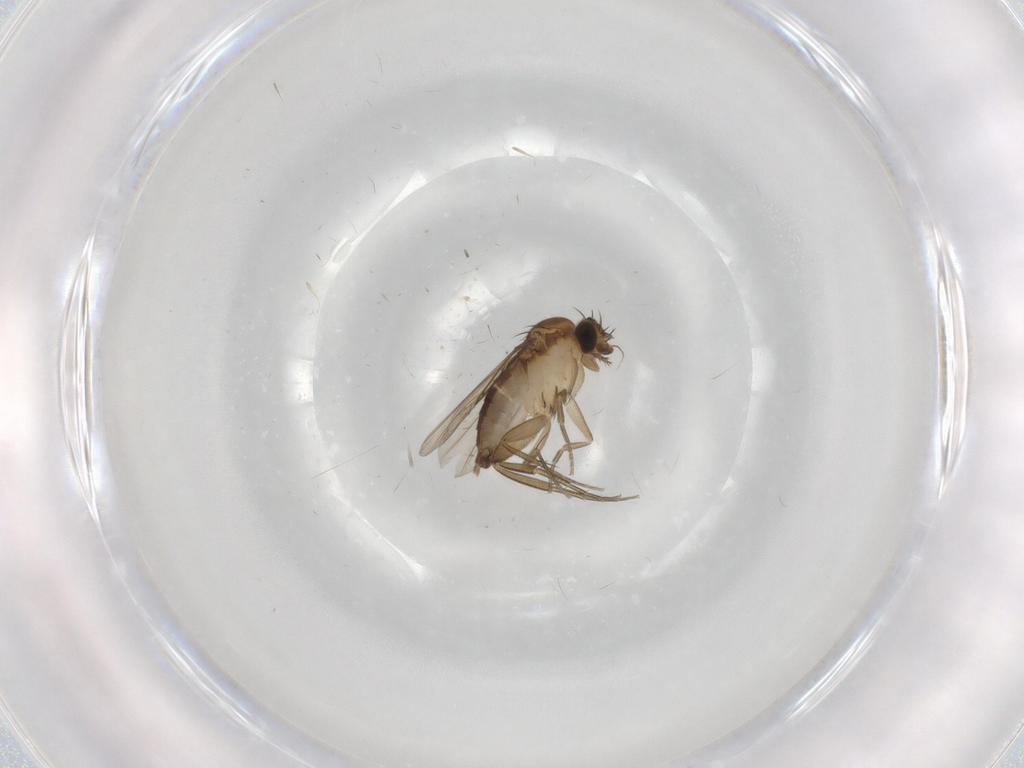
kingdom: Animalia
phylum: Arthropoda
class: Insecta
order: Diptera
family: Phoridae
